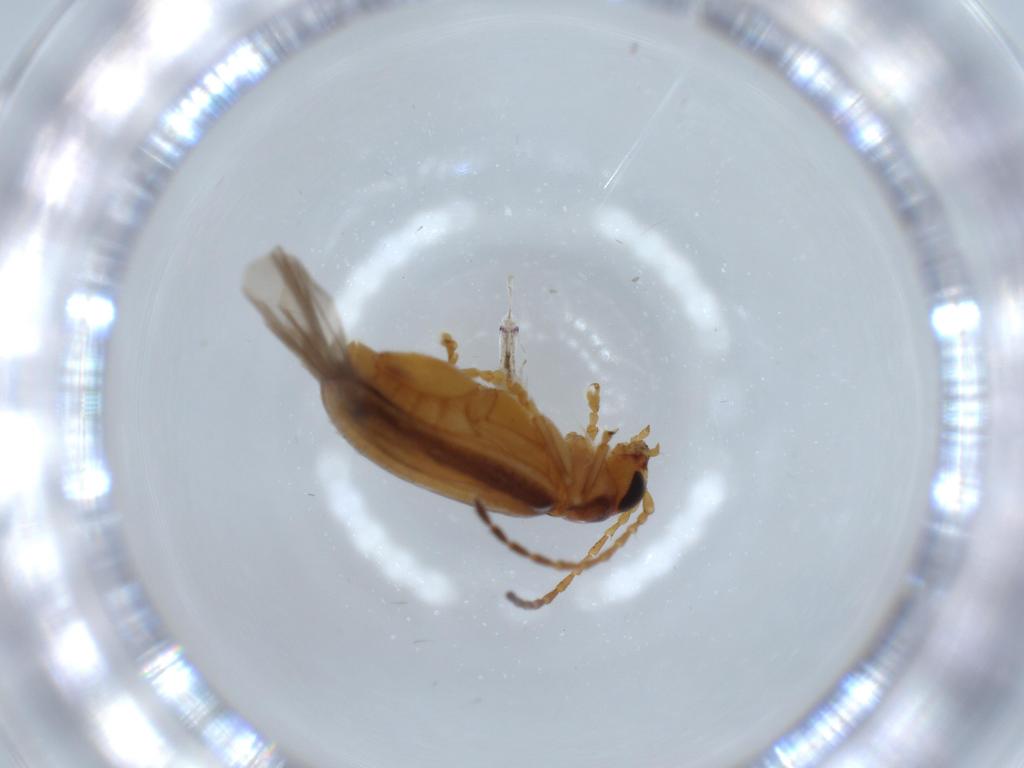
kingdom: Animalia
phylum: Arthropoda
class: Insecta
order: Coleoptera
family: Chrysomelidae
